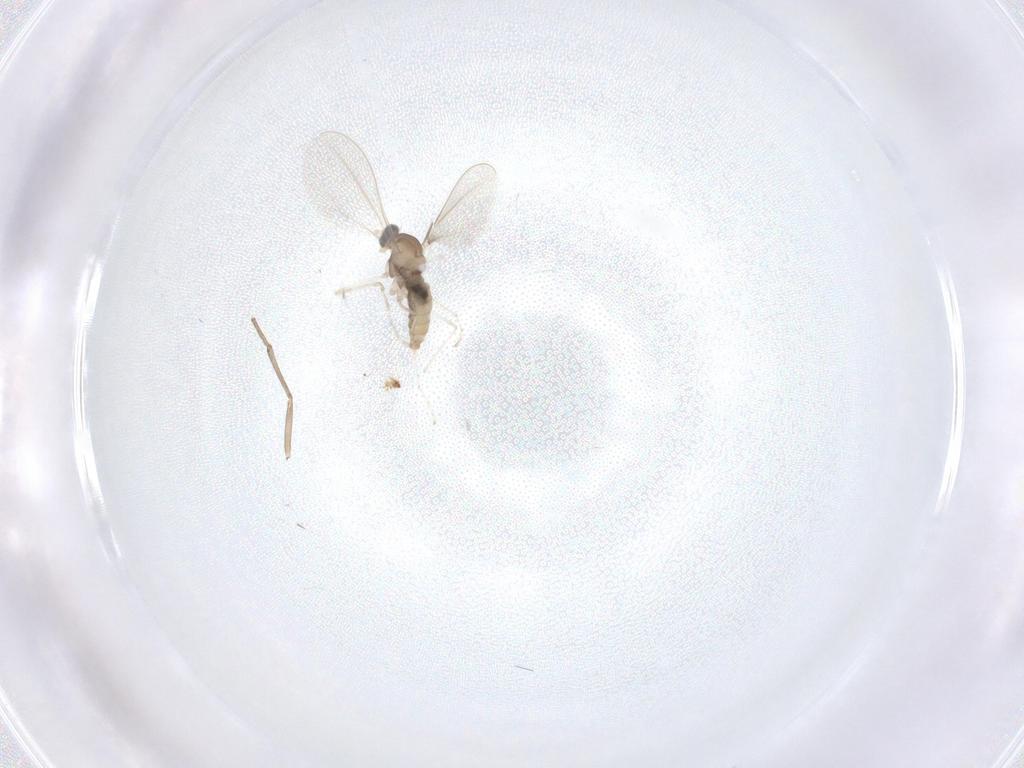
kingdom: Animalia
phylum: Arthropoda
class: Insecta
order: Diptera
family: Cecidomyiidae
